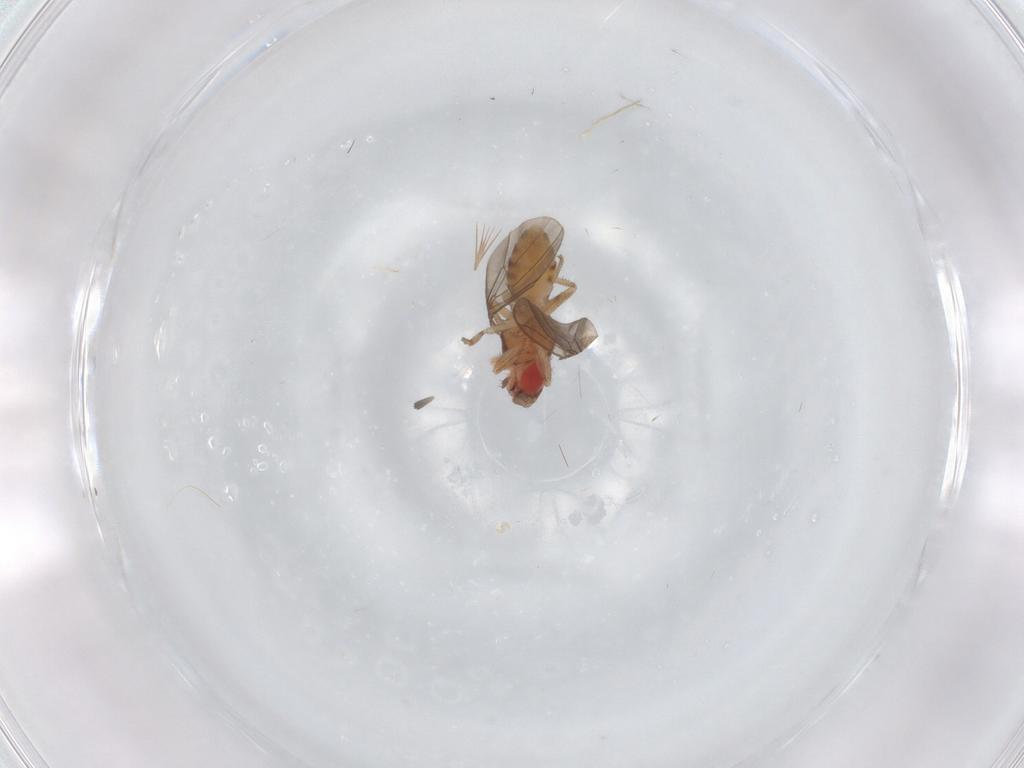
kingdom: Animalia
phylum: Arthropoda
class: Insecta
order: Diptera
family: Drosophilidae
